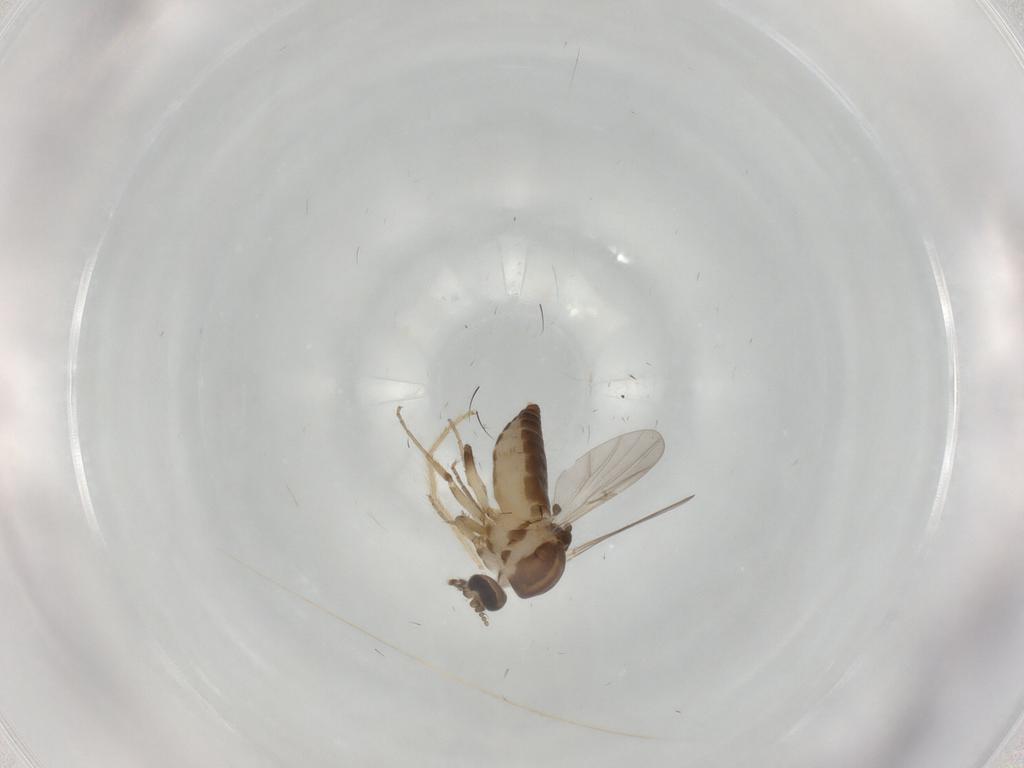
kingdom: Animalia
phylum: Arthropoda
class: Insecta
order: Diptera
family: Ceratopogonidae
